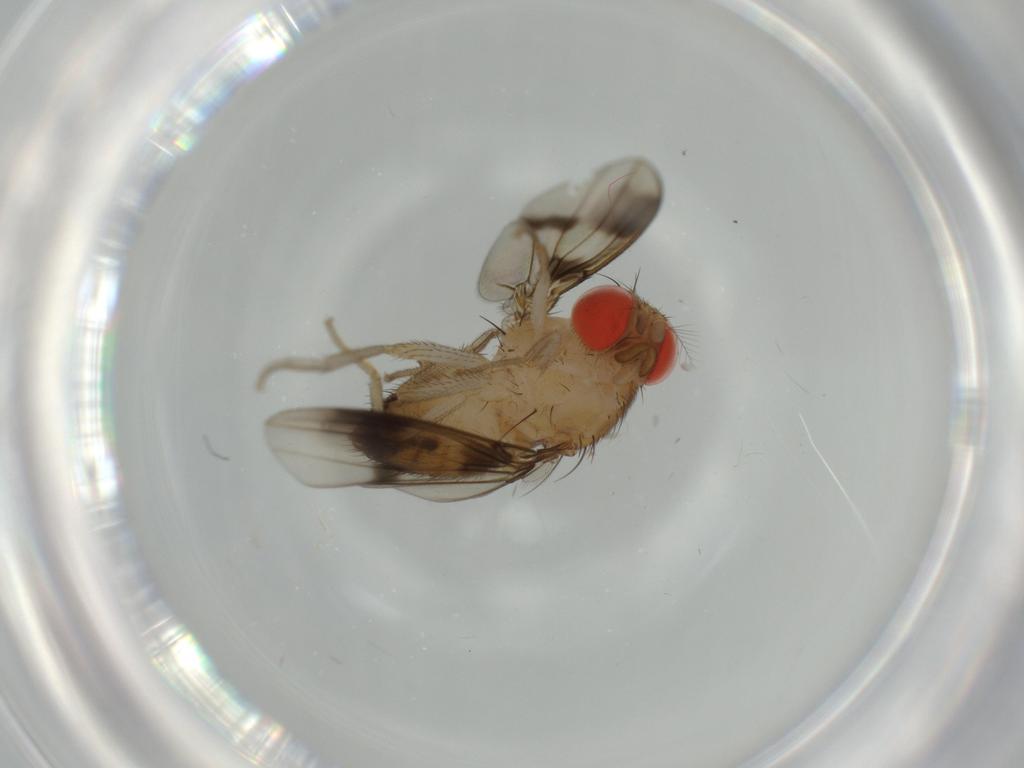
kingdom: Animalia
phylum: Arthropoda
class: Insecta
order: Diptera
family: Drosophilidae
